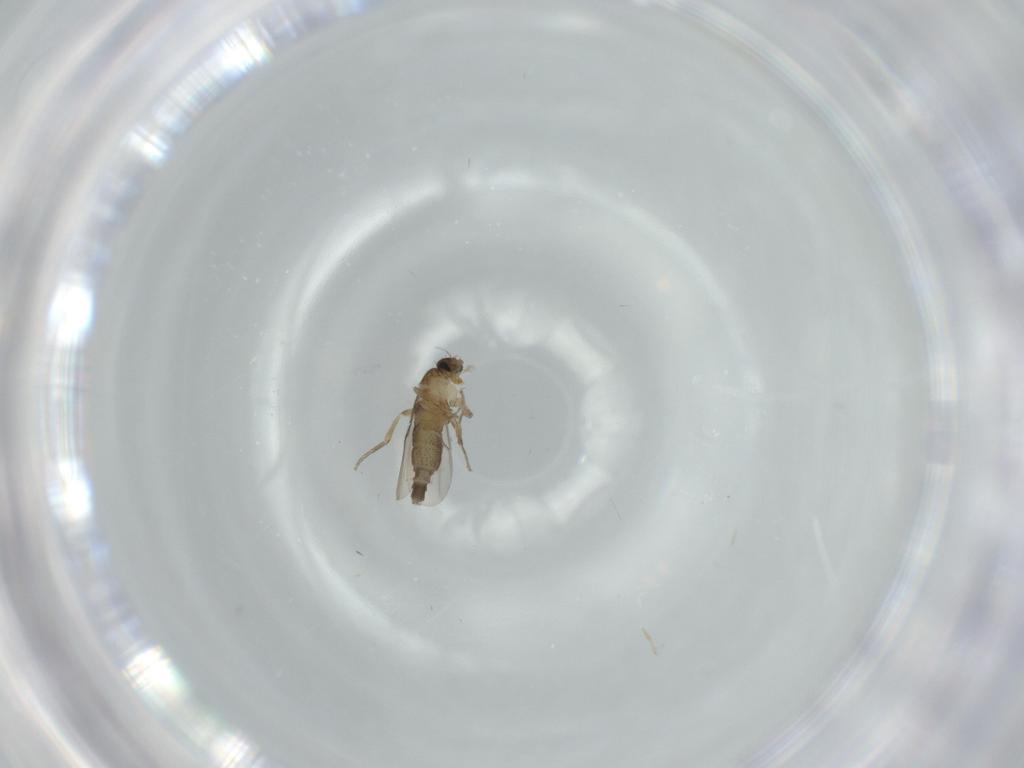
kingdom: Animalia
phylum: Arthropoda
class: Insecta
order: Diptera
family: Phoridae
